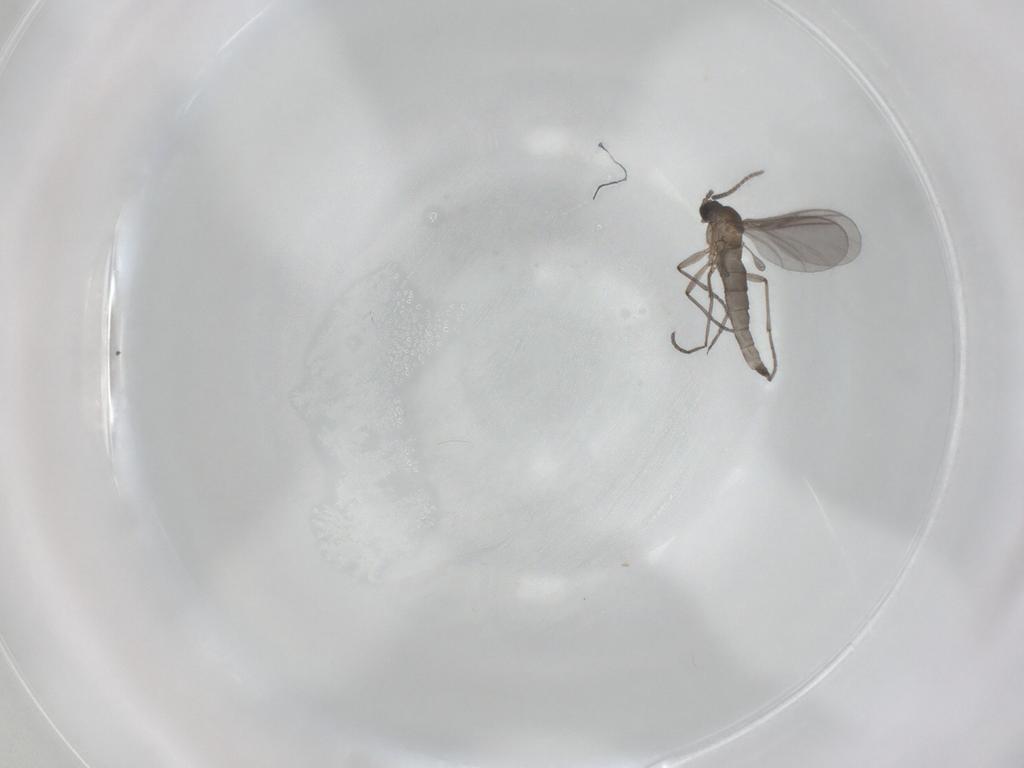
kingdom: Animalia
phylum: Arthropoda
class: Insecta
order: Diptera
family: Sciaridae
